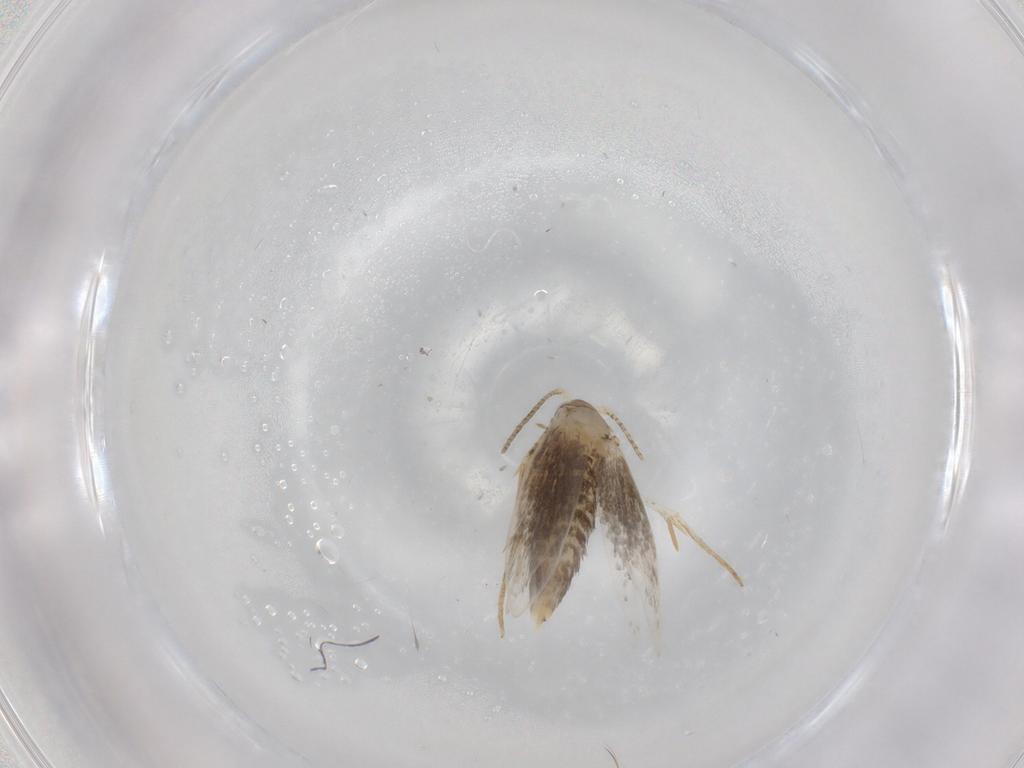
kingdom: Animalia
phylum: Arthropoda
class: Insecta
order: Lepidoptera
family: Tineidae
